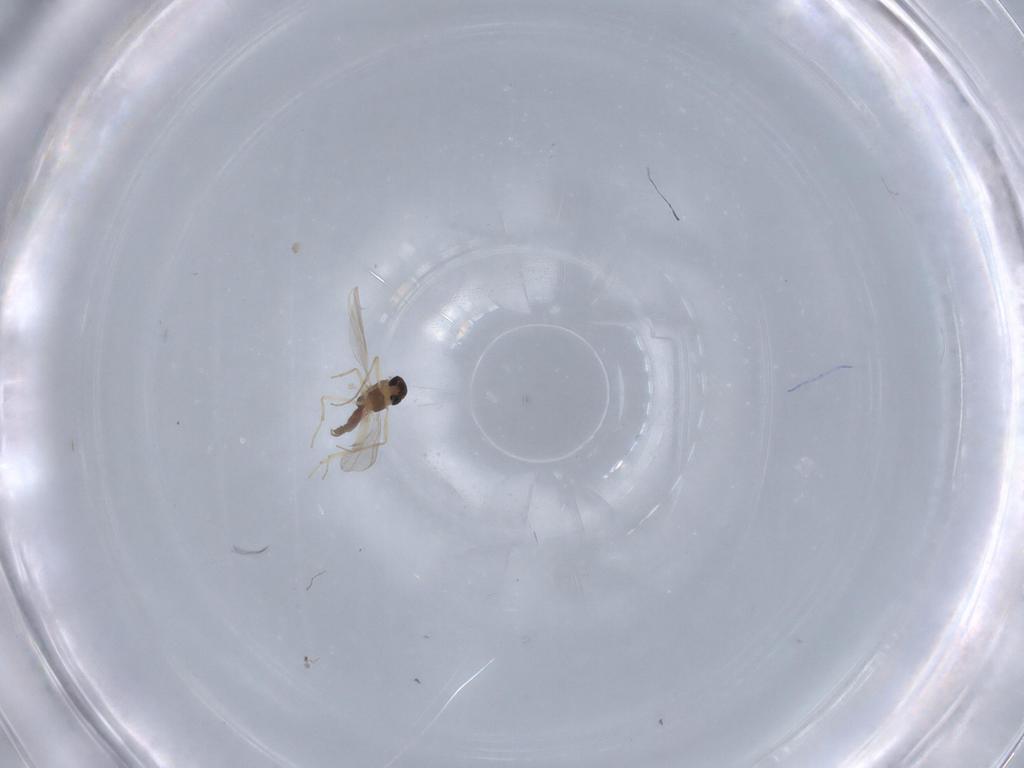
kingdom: Animalia
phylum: Arthropoda
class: Insecta
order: Diptera
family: Chironomidae
